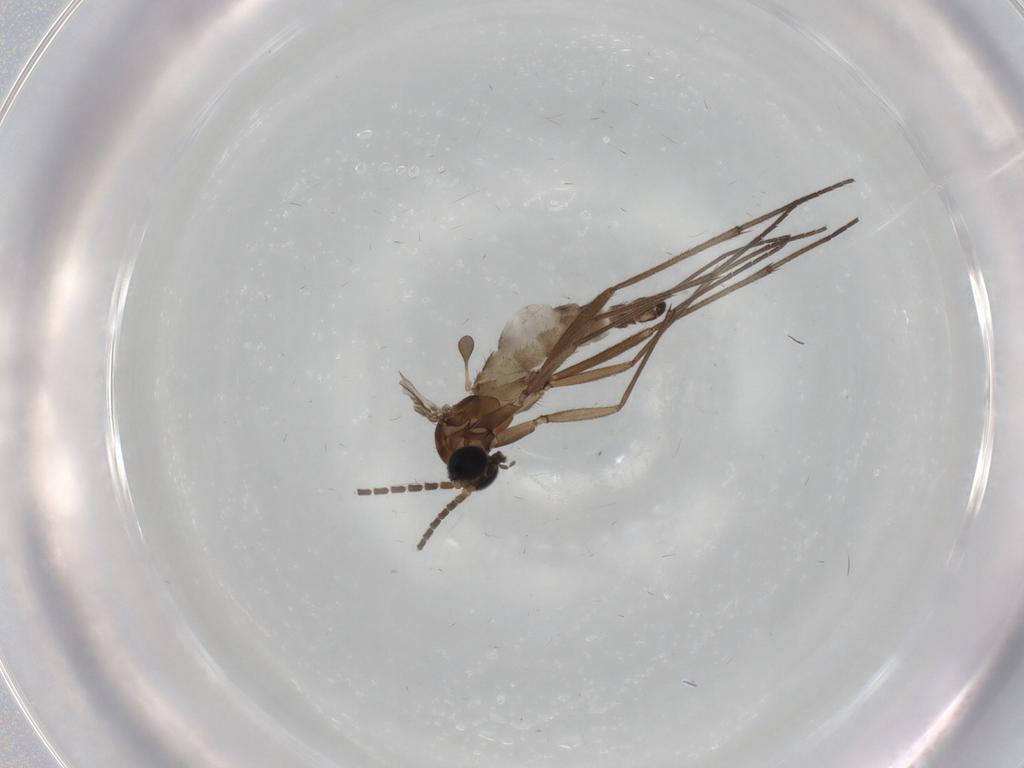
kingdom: Animalia
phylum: Arthropoda
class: Insecta
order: Diptera
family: Sciaridae
